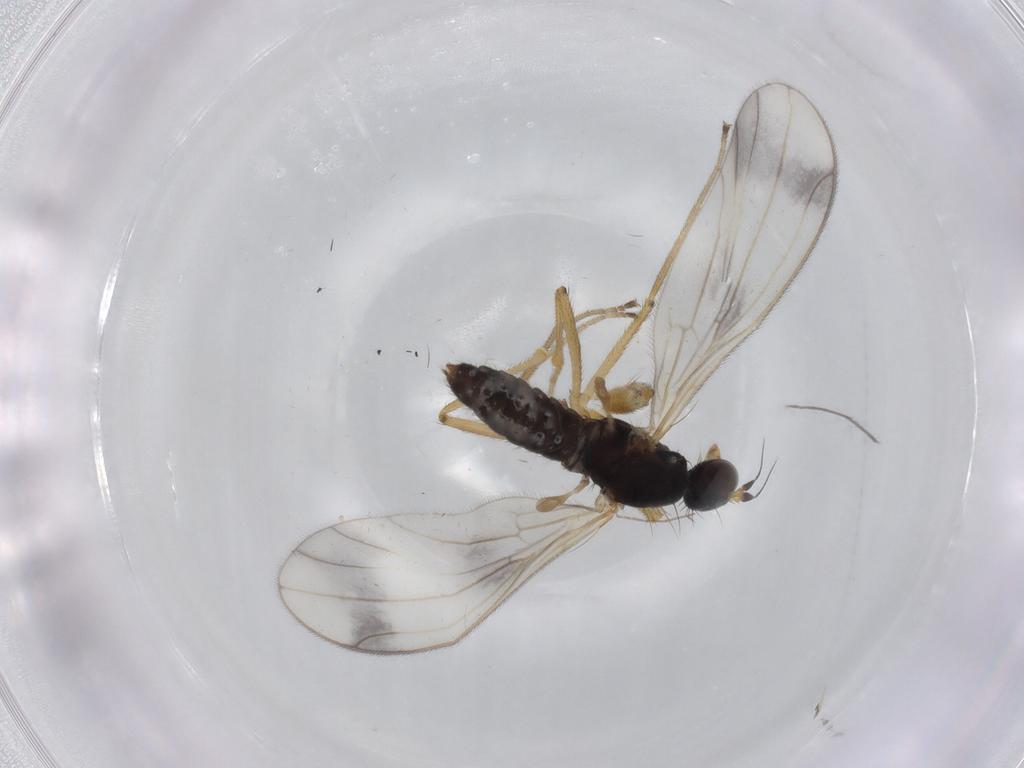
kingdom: Animalia
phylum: Arthropoda
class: Insecta
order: Diptera
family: Empididae
